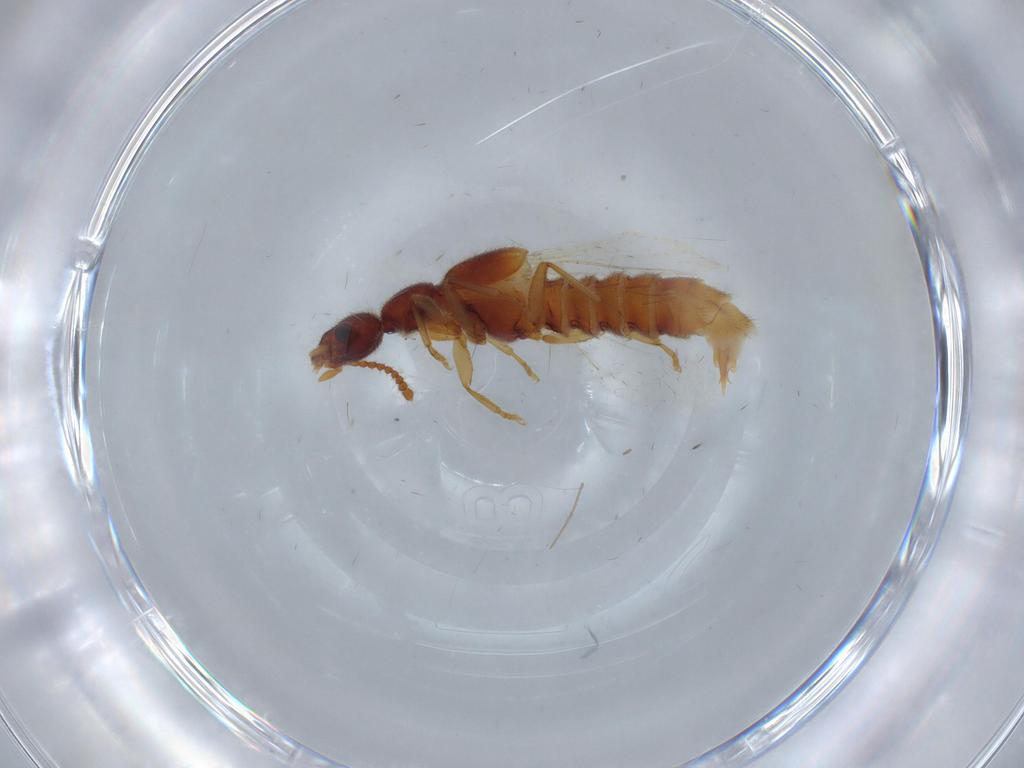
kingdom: Animalia
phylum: Arthropoda
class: Insecta
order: Coleoptera
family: Staphylinidae
